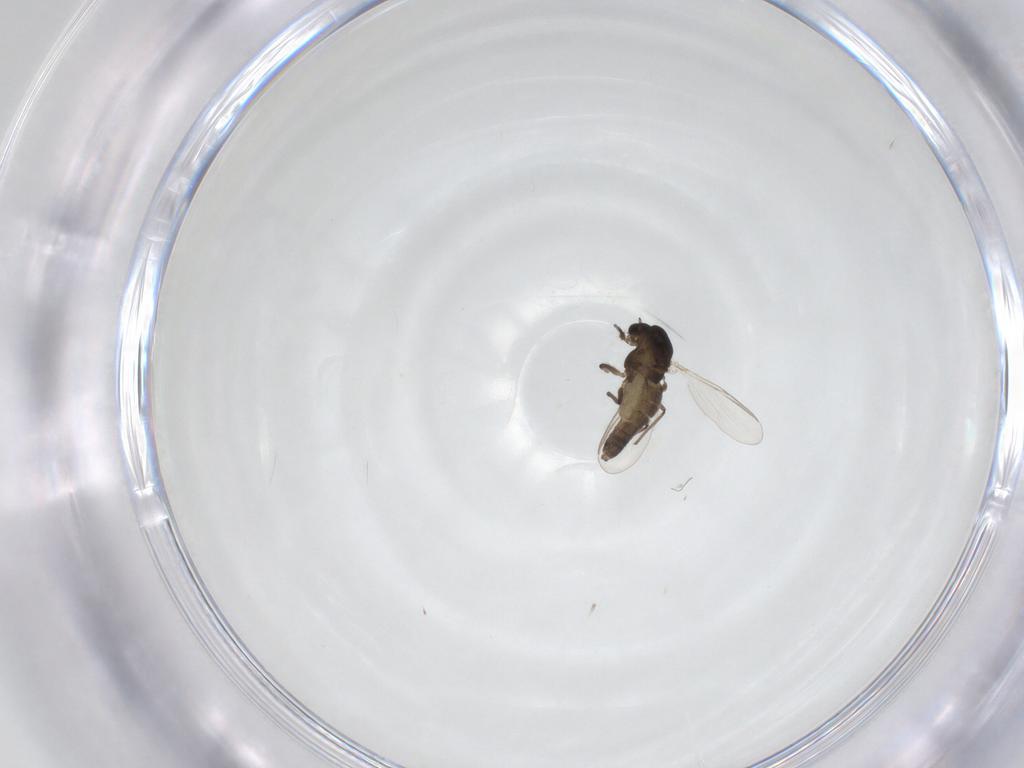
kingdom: Animalia
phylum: Arthropoda
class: Insecta
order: Diptera
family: Chironomidae
